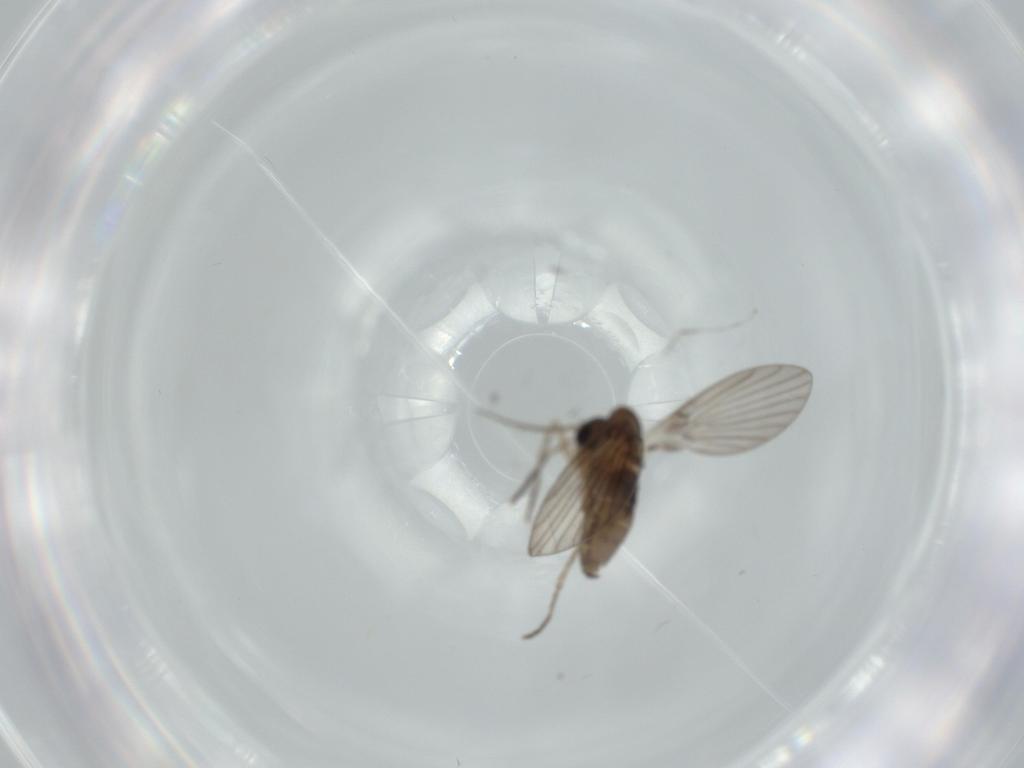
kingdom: Animalia
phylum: Arthropoda
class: Insecta
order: Diptera
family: Psychodidae
